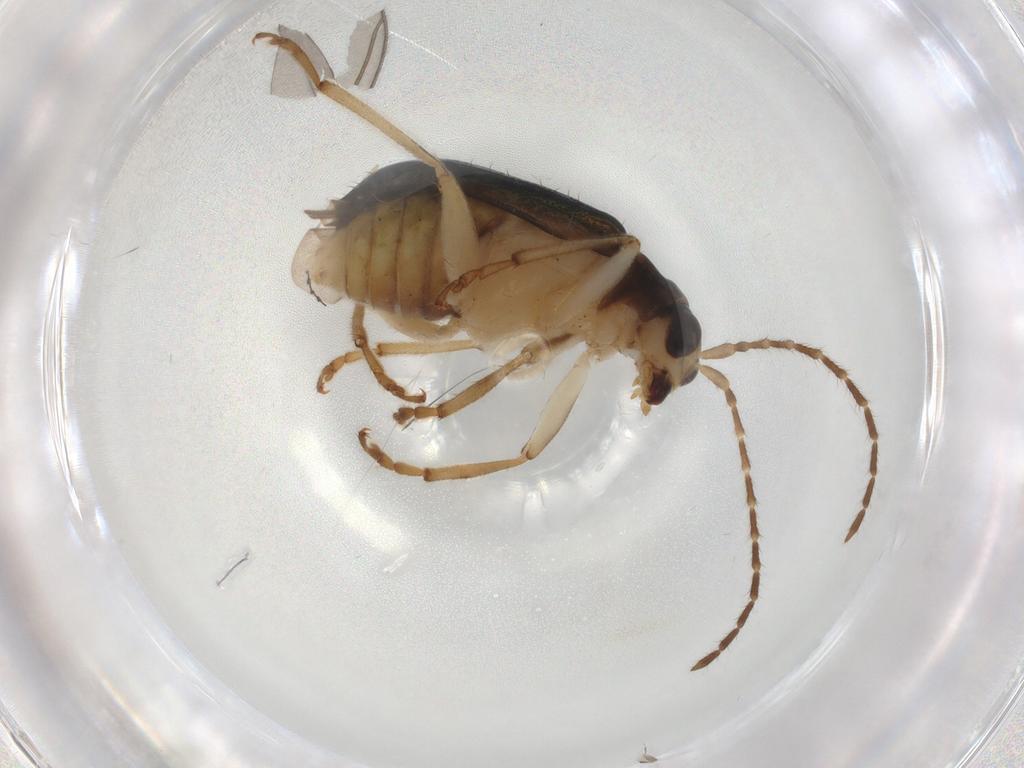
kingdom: Animalia
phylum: Arthropoda
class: Insecta
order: Coleoptera
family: Chrysomelidae
